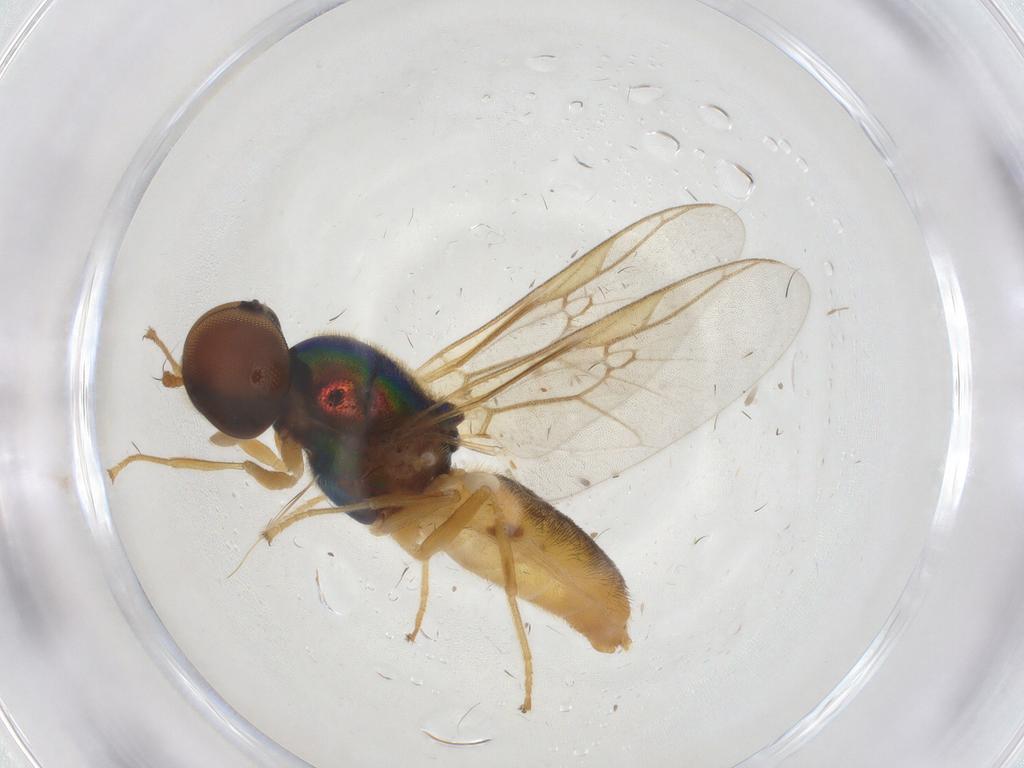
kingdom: Animalia
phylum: Arthropoda
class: Insecta
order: Diptera
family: Stratiomyidae
